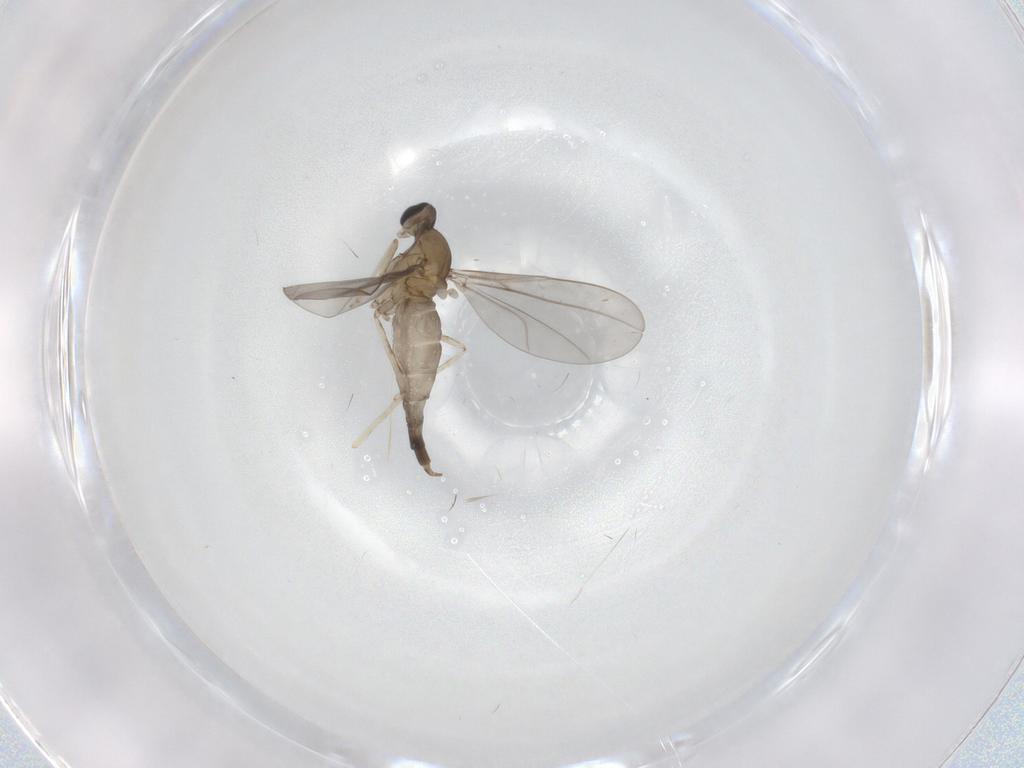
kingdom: Animalia
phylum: Arthropoda
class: Insecta
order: Diptera
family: Cecidomyiidae
